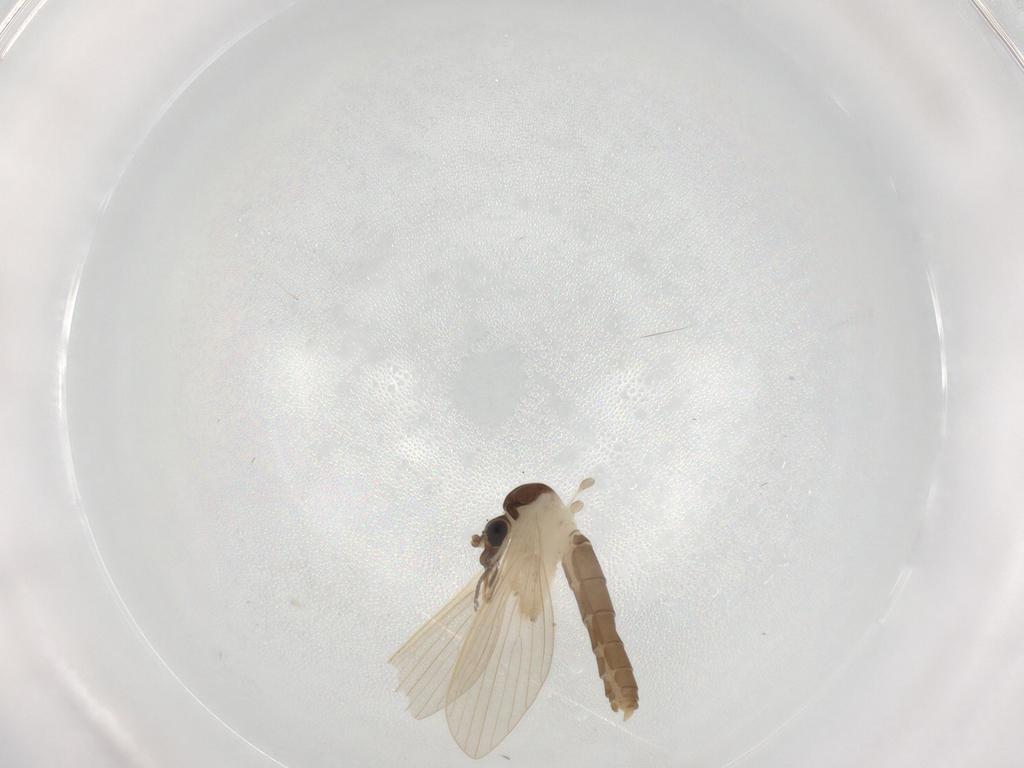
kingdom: Animalia
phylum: Arthropoda
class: Insecta
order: Diptera
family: Psychodidae
